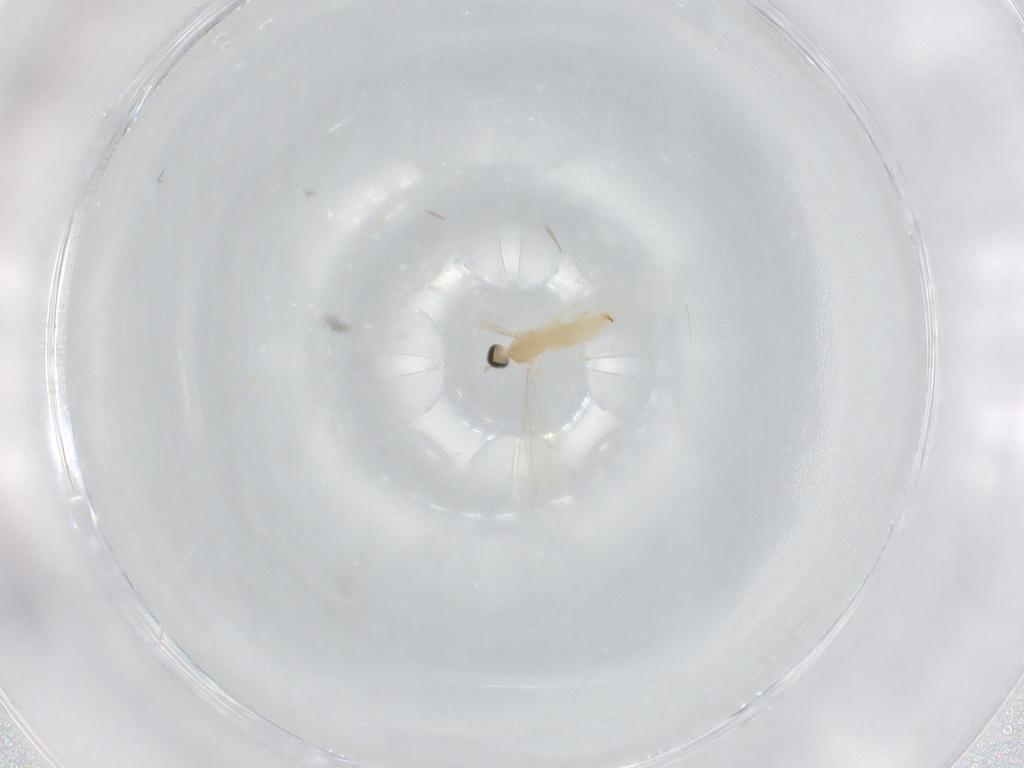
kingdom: Animalia
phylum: Arthropoda
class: Insecta
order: Diptera
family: Cecidomyiidae
